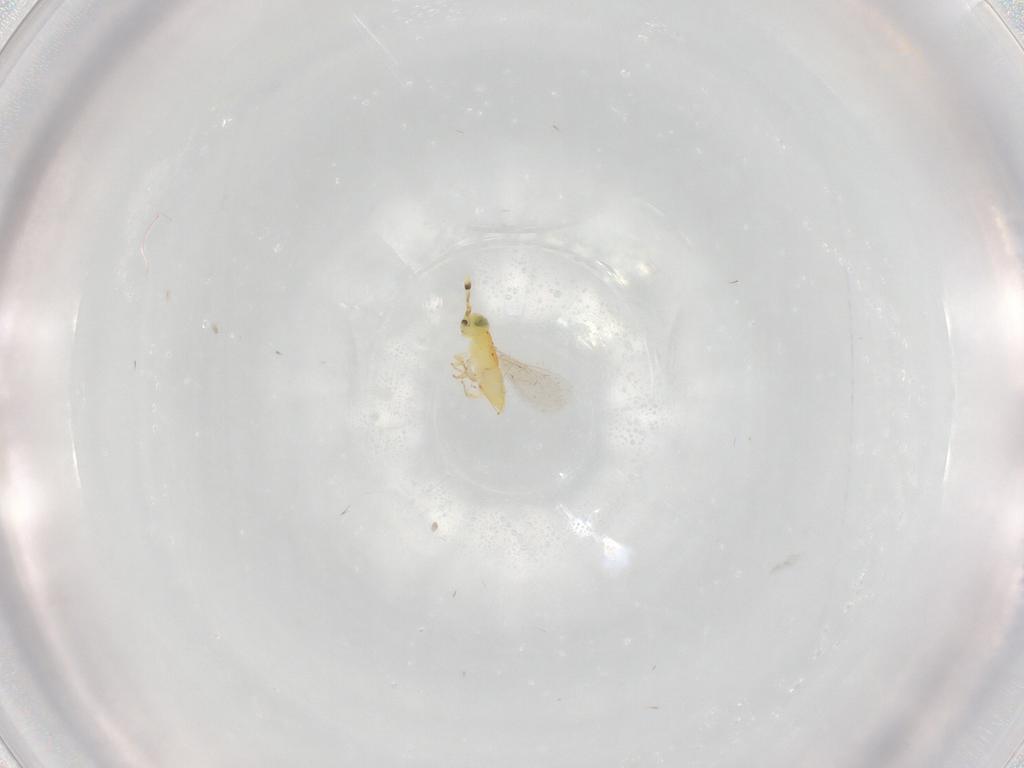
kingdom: Animalia
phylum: Arthropoda
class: Insecta
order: Hymenoptera
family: Encyrtidae
